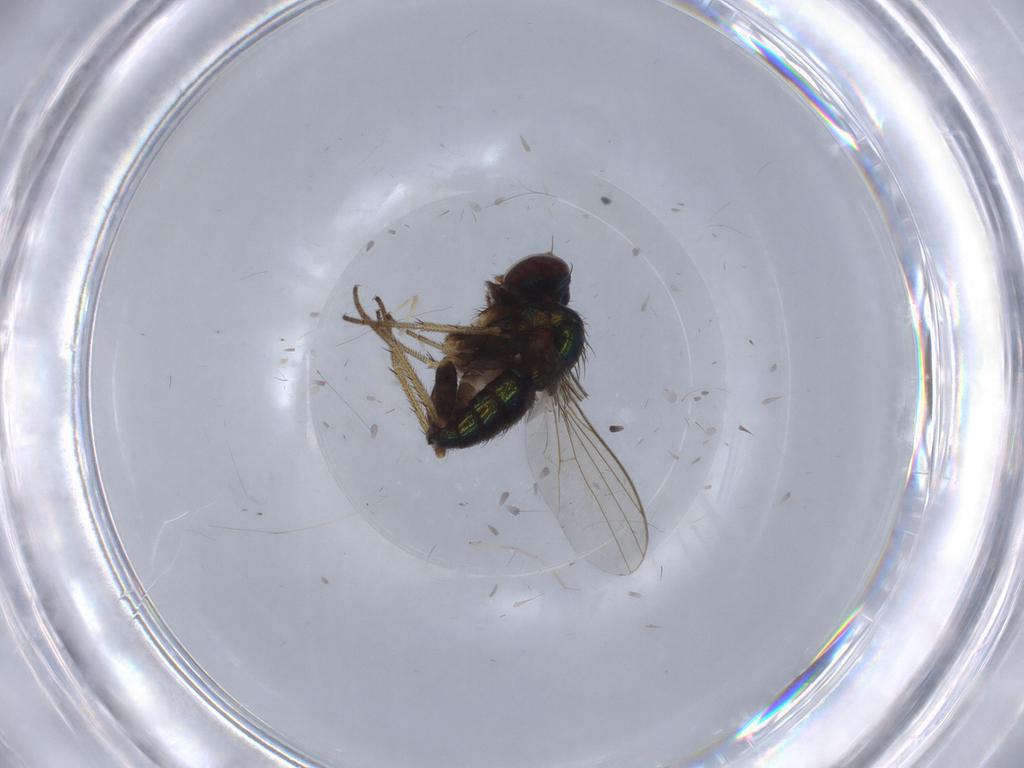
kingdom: Animalia
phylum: Arthropoda
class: Insecta
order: Diptera
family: Ceratopogonidae
